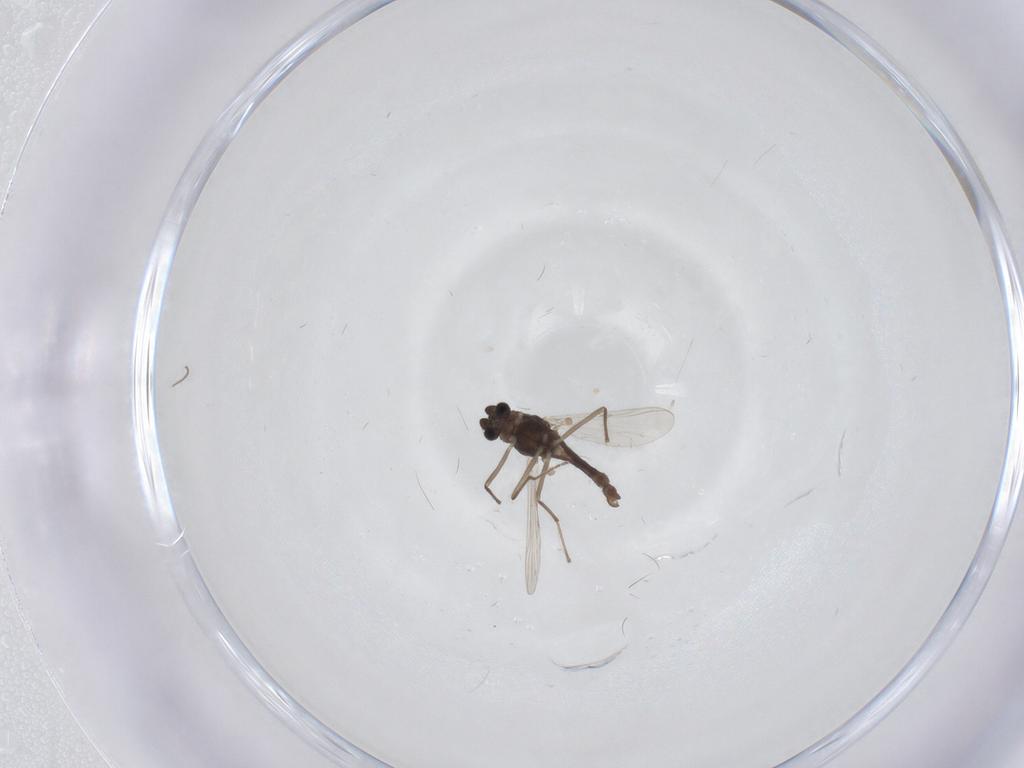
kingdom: Animalia
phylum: Arthropoda
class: Insecta
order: Diptera
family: Chironomidae
